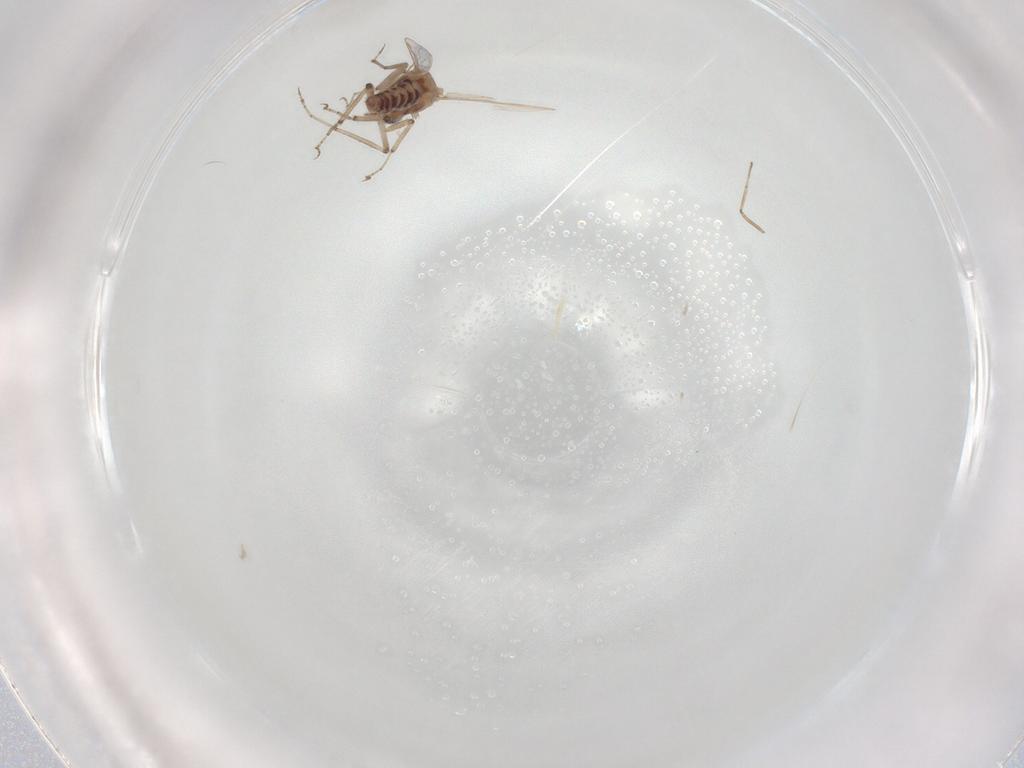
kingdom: Animalia
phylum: Arthropoda
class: Insecta
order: Diptera
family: Ceratopogonidae
